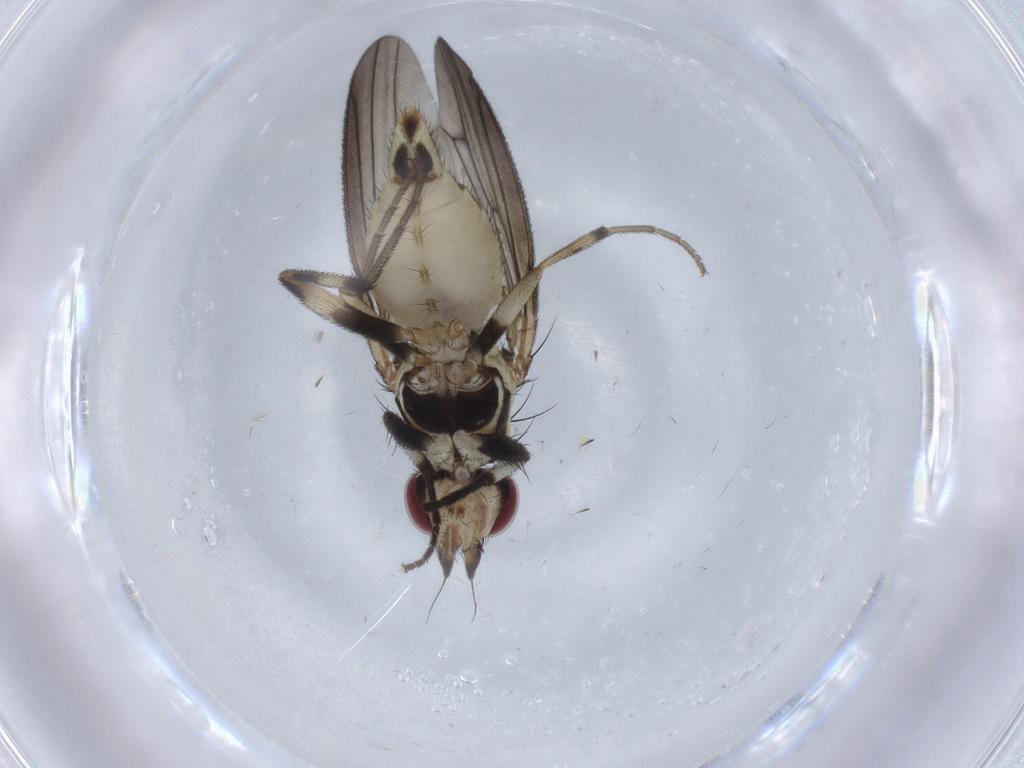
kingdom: Animalia
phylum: Arthropoda
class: Insecta
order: Diptera
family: Pseudopomyzidae
